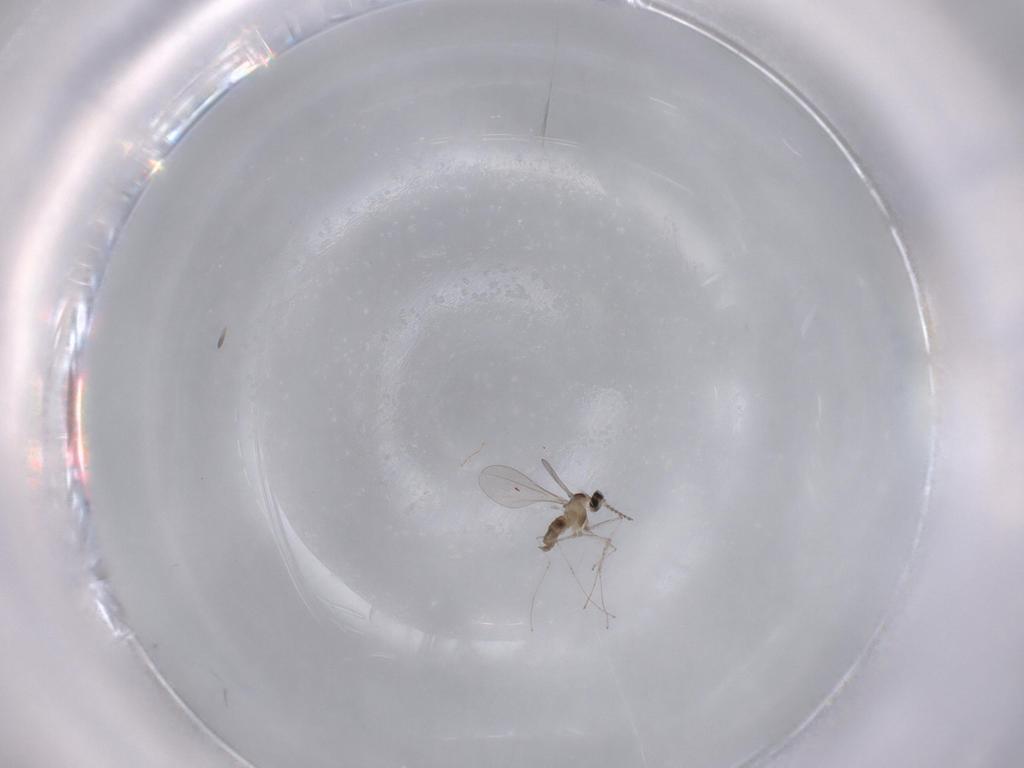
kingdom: Animalia
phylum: Arthropoda
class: Insecta
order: Diptera
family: Cecidomyiidae
